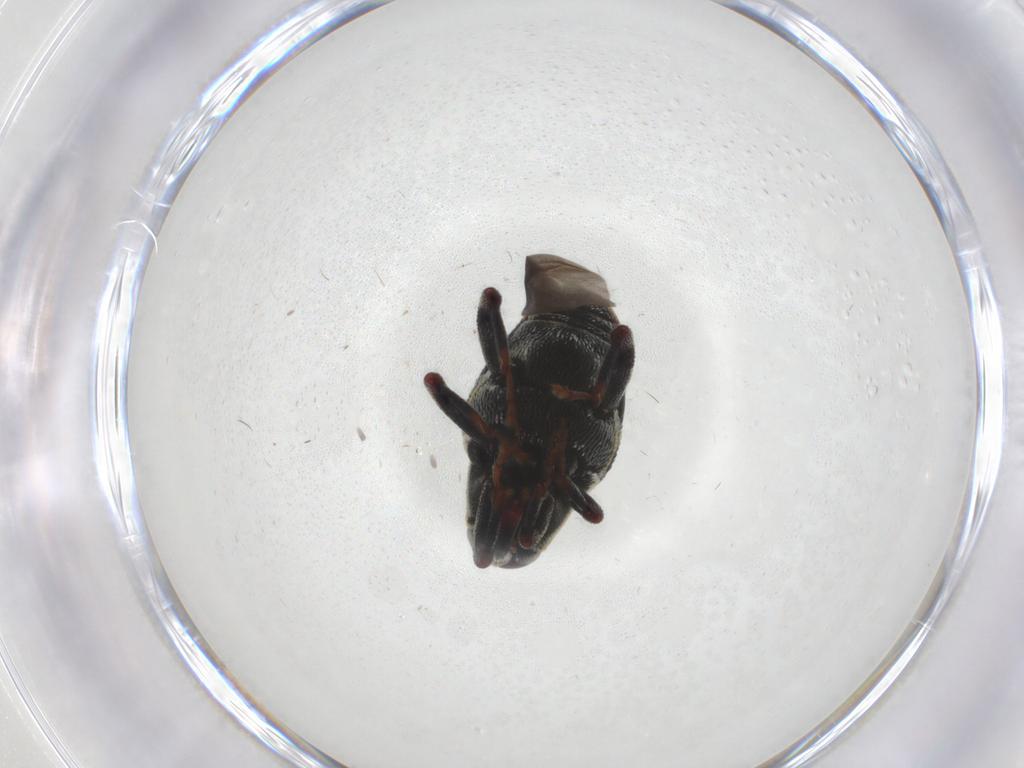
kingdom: Animalia
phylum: Arthropoda
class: Insecta
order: Coleoptera
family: Curculionidae
